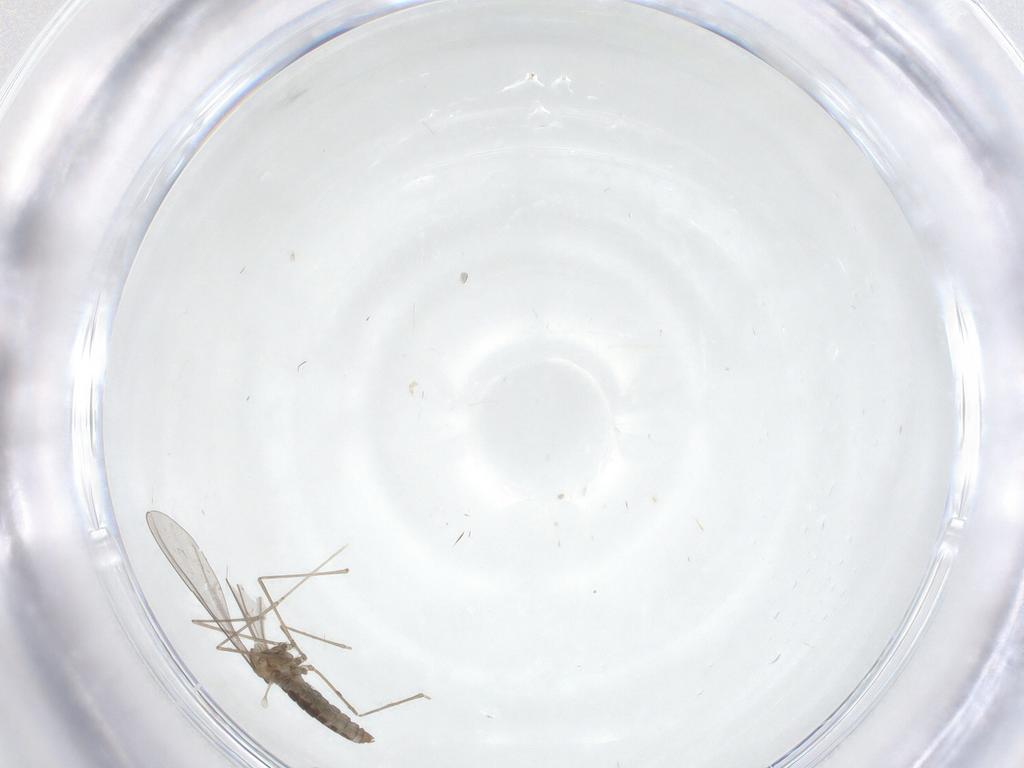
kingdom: Animalia
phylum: Arthropoda
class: Insecta
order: Diptera
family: Cecidomyiidae
